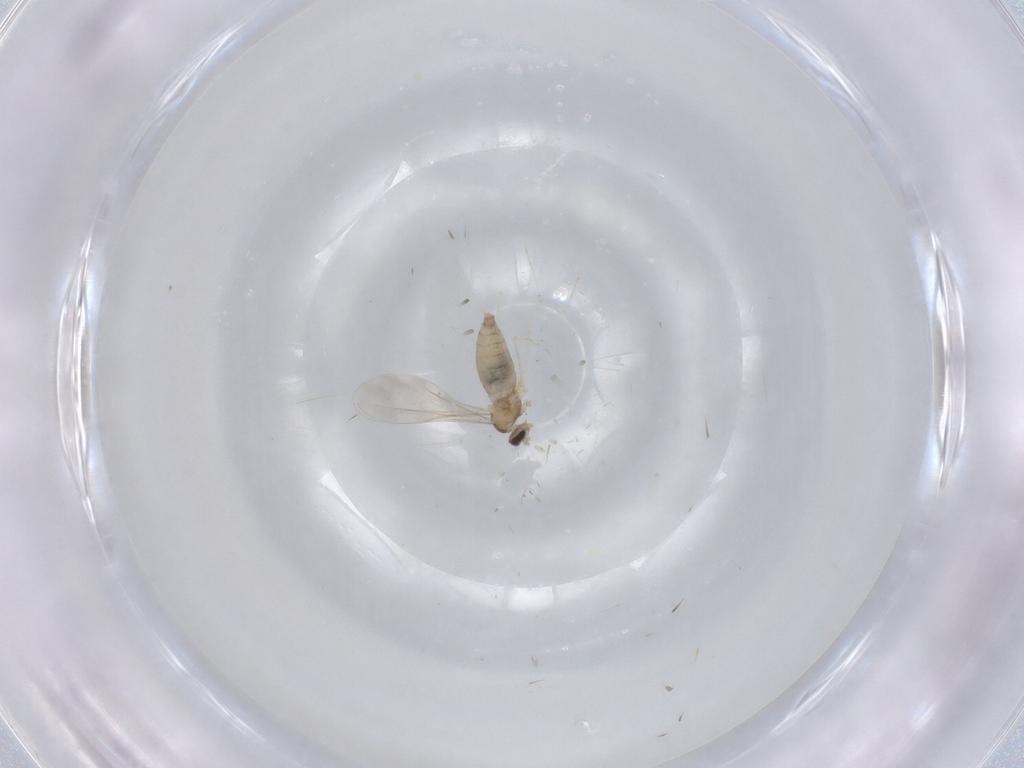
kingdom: Animalia
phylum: Arthropoda
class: Insecta
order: Diptera
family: Cecidomyiidae
